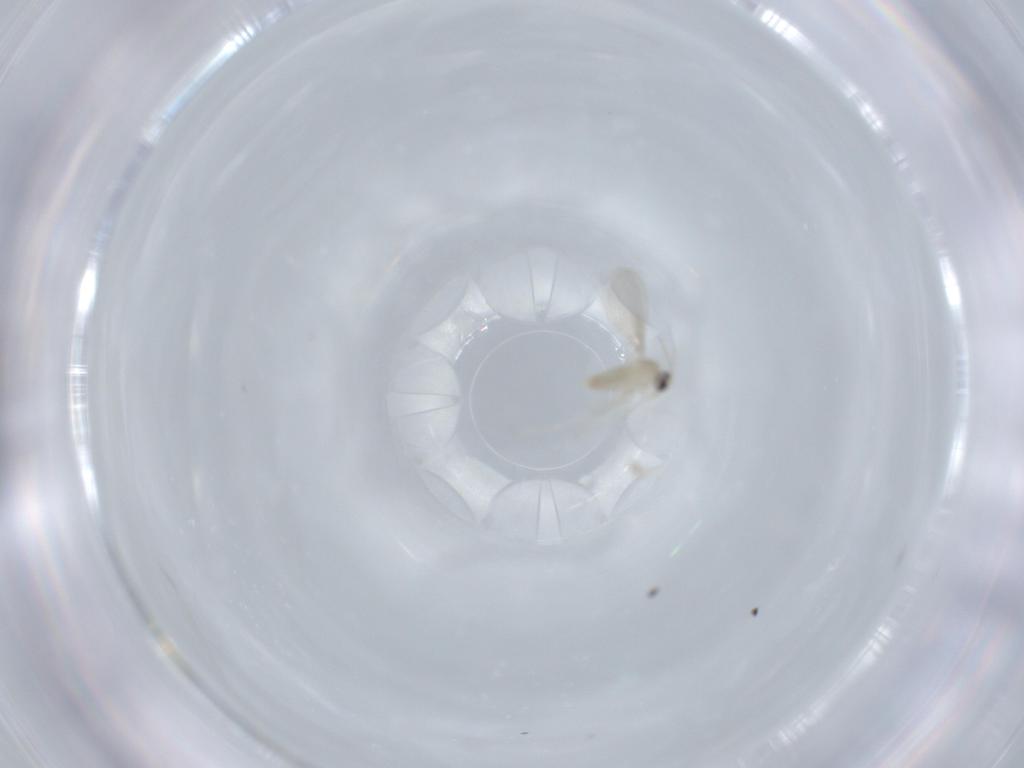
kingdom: Animalia
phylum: Arthropoda
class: Insecta
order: Diptera
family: Cecidomyiidae
